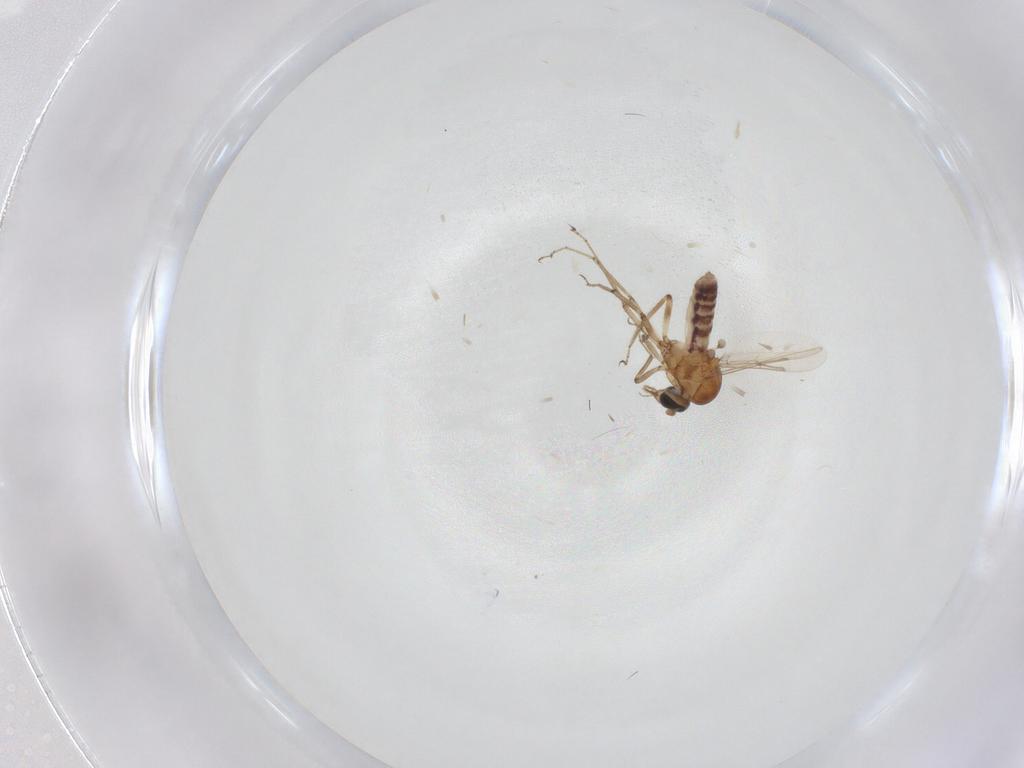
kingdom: Animalia
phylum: Arthropoda
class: Insecta
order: Diptera
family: Ceratopogonidae
